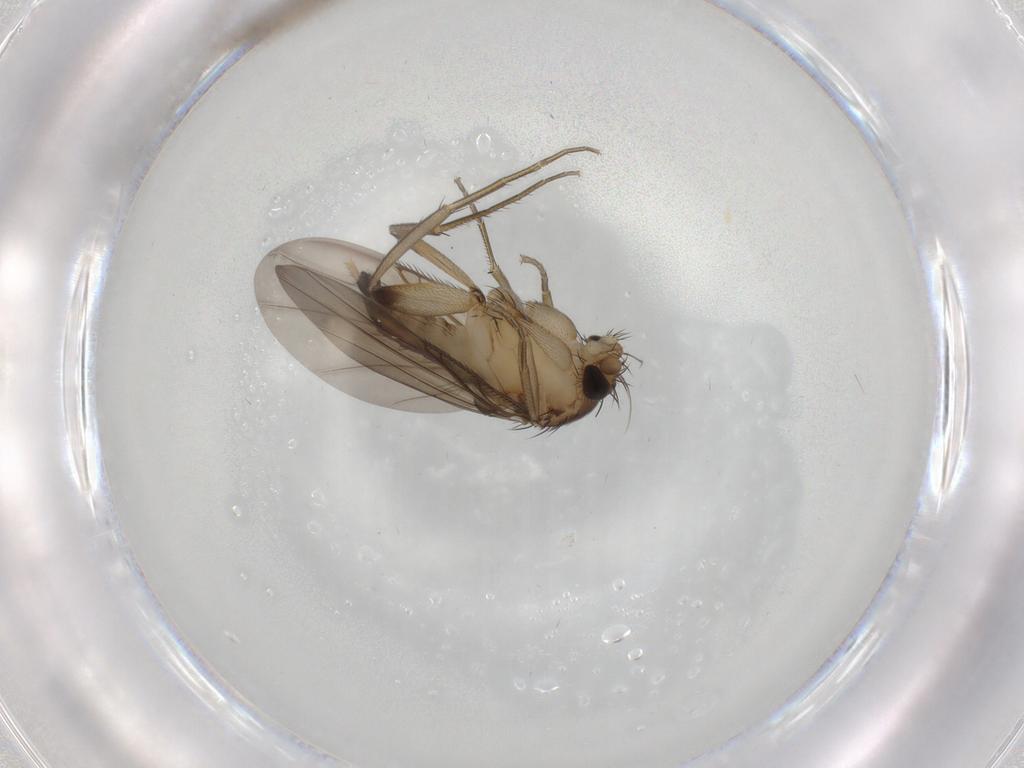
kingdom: Animalia
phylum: Arthropoda
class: Insecta
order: Diptera
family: Phoridae
